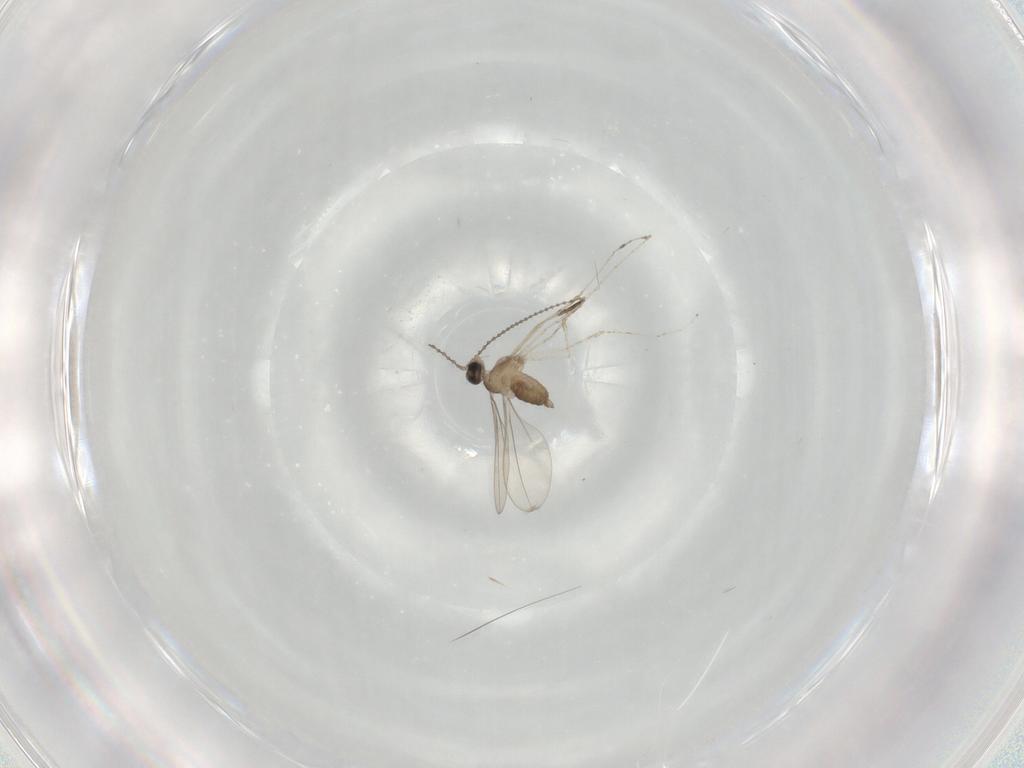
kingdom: Animalia
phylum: Arthropoda
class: Insecta
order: Diptera
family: Cecidomyiidae
